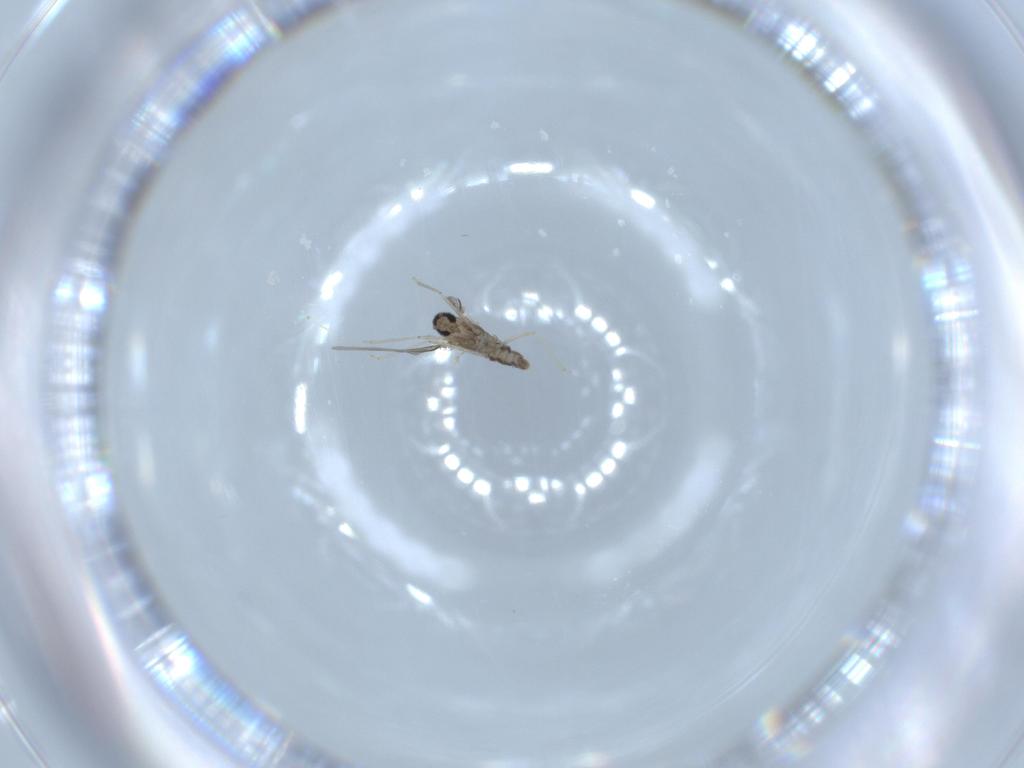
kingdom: Animalia
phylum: Arthropoda
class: Insecta
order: Diptera
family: Cecidomyiidae
